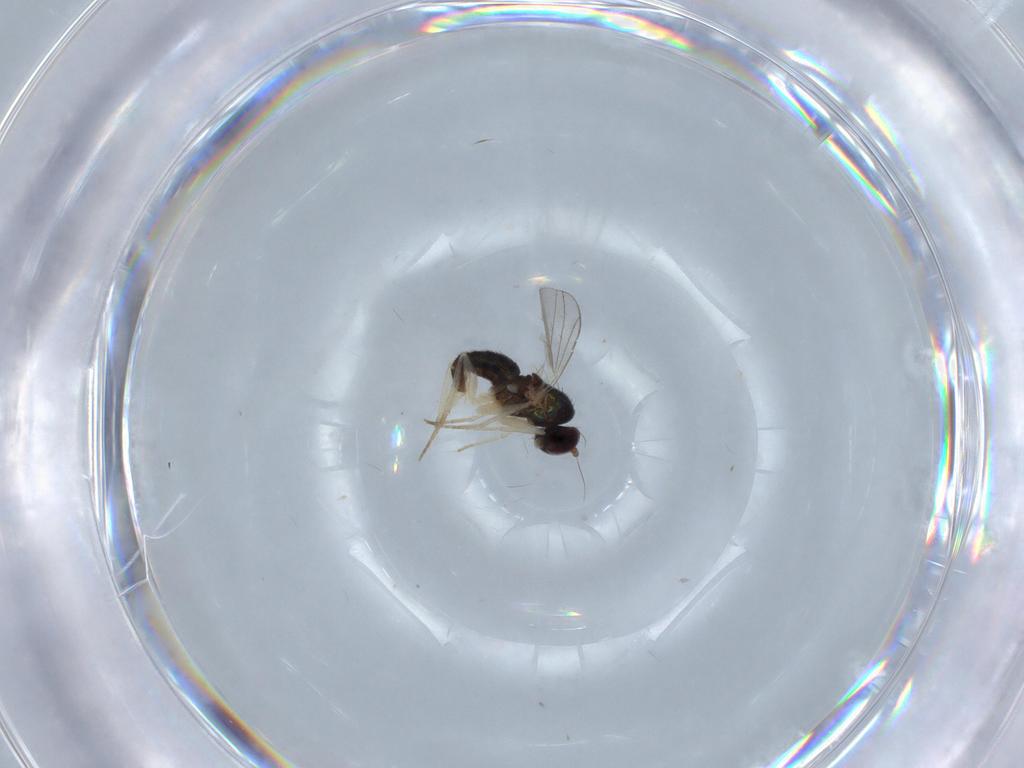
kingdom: Animalia
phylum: Arthropoda
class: Insecta
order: Diptera
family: Dolichopodidae
